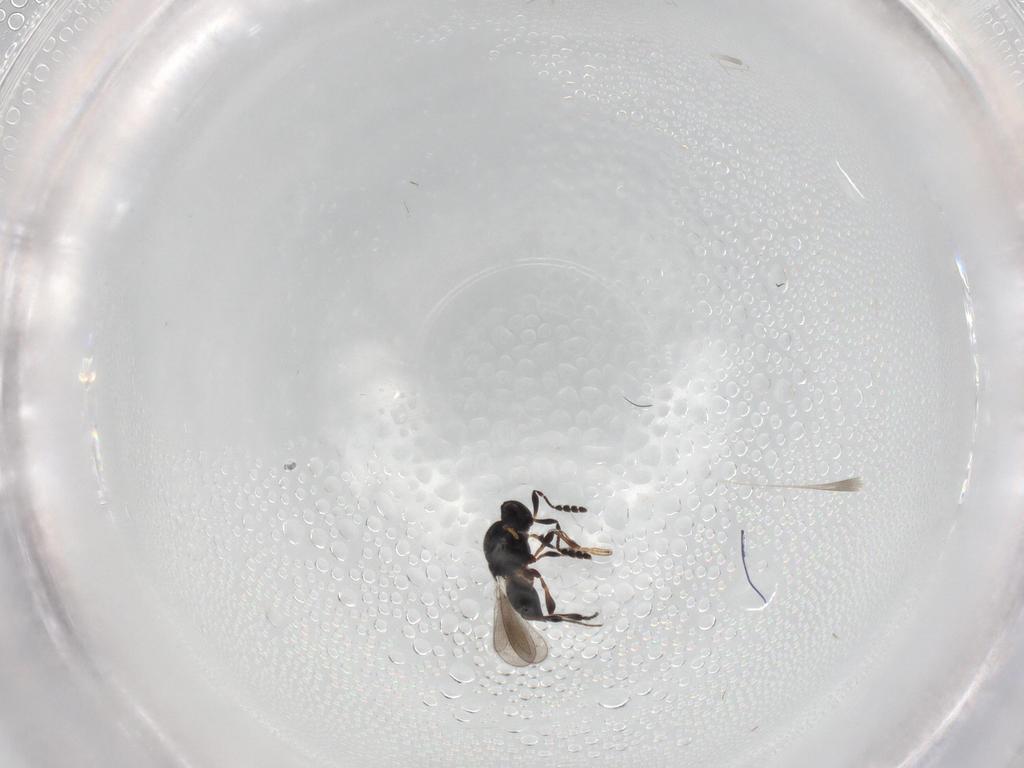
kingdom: Animalia
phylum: Arthropoda
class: Insecta
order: Hymenoptera
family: Platygastridae
